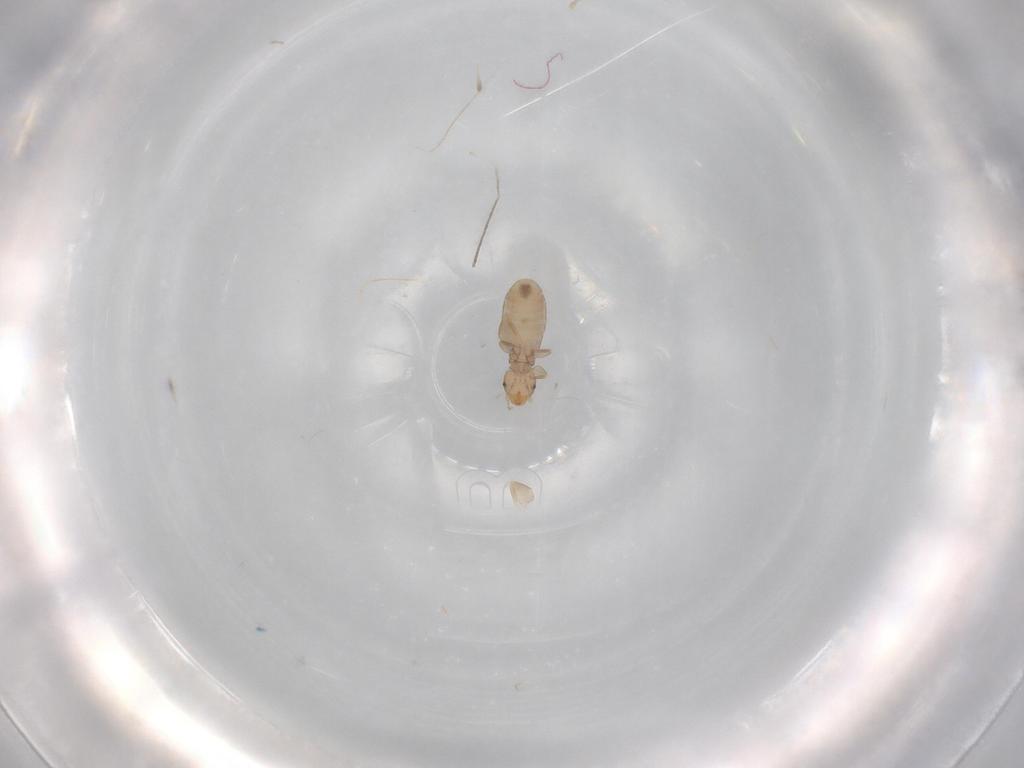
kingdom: Animalia
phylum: Arthropoda
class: Insecta
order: Psocodea
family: Liposcelididae
